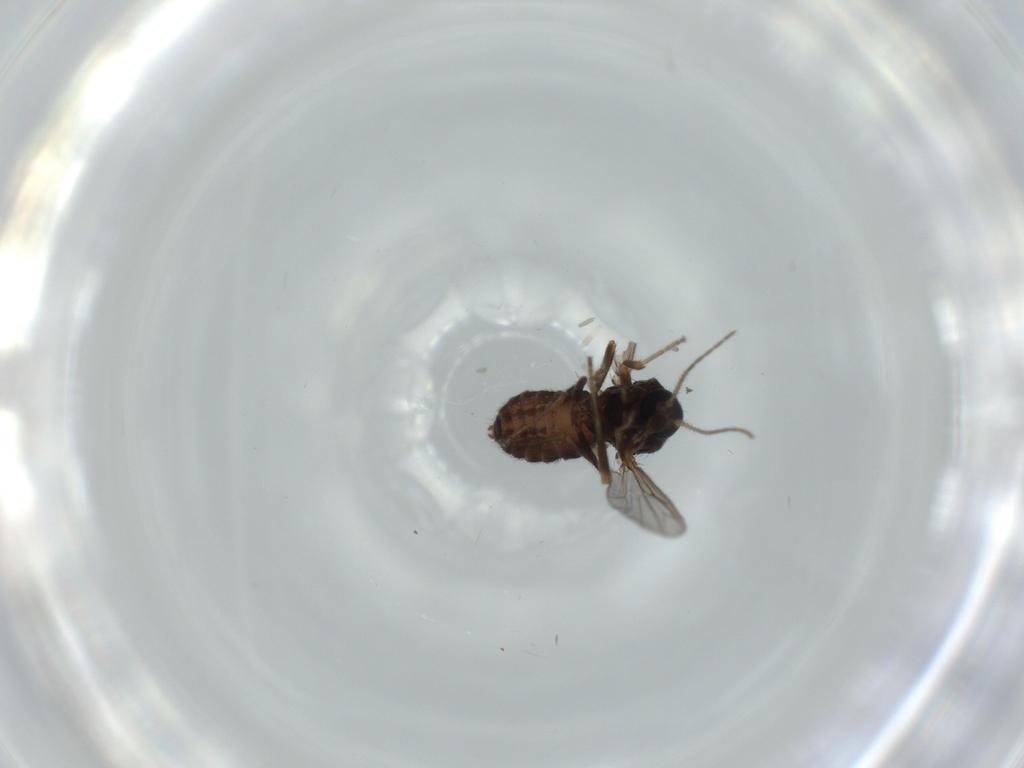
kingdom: Animalia
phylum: Arthropoda
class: Insecta
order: Diptera
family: Ceratopogonidae
